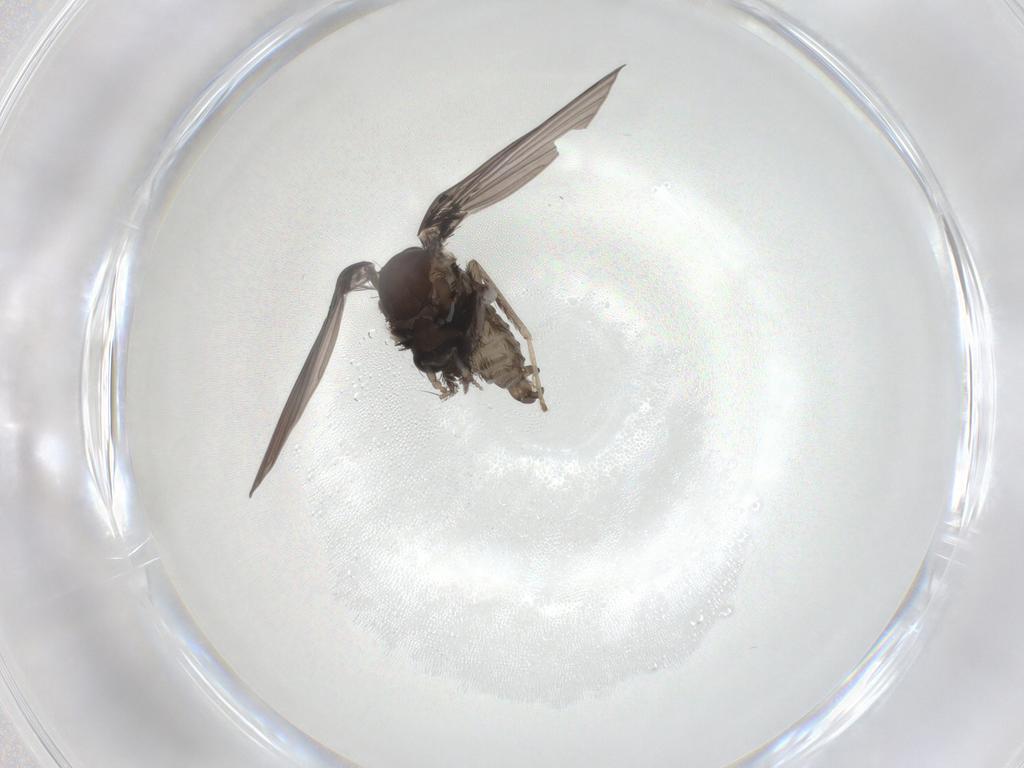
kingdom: Animalia
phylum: Arthropoda
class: Insecta
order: Diptera
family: Psychodidae
